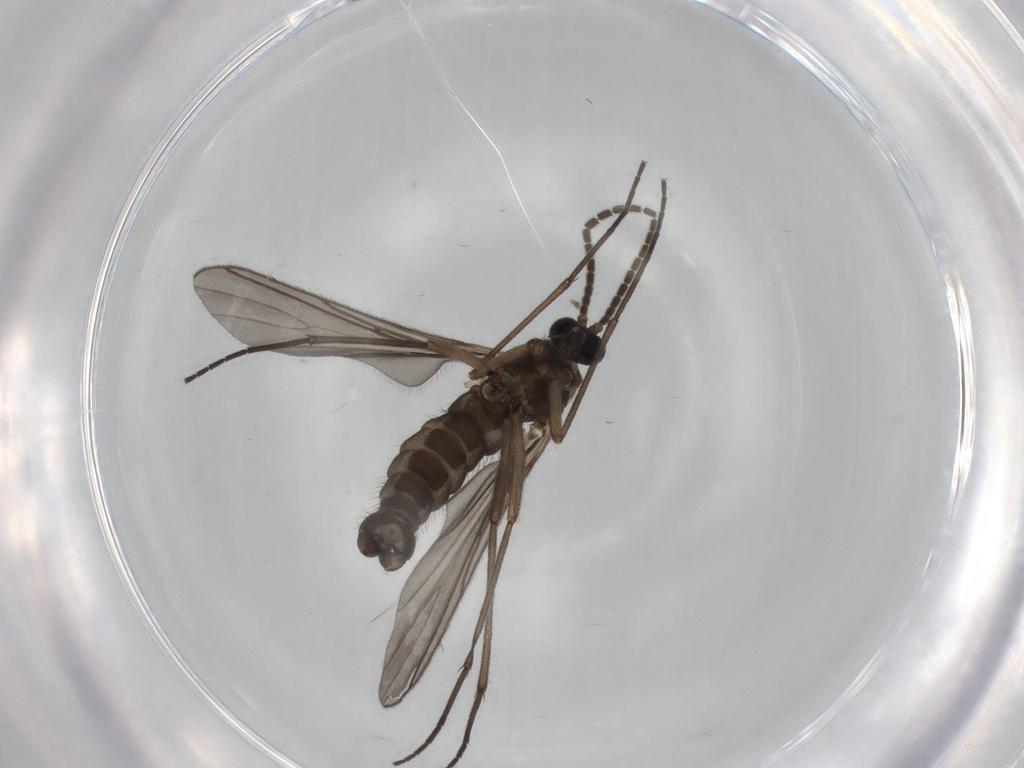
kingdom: Animalia
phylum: Arthropoda
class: Insecta
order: Diptera
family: Sciaridae
